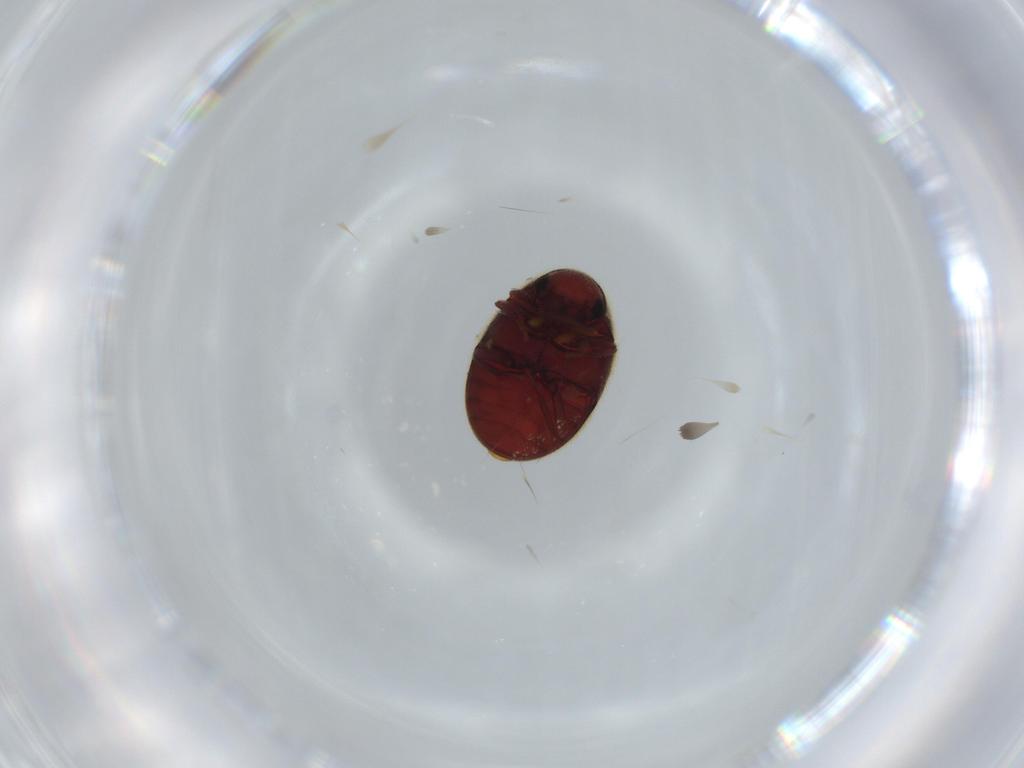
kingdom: Animalia
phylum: Arthropoda
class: Insecta
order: Coleoptera
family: Ptinidae
